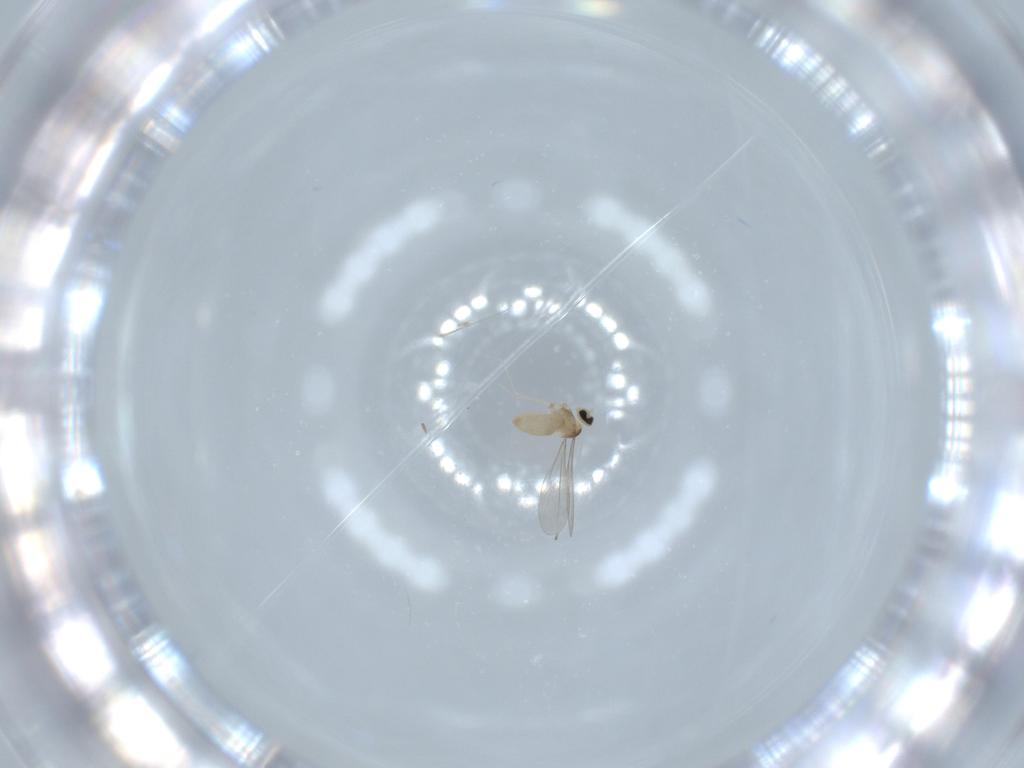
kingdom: Animalia
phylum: Arthropoda
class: Insecta
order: Diptera
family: Cecidomyiidae
